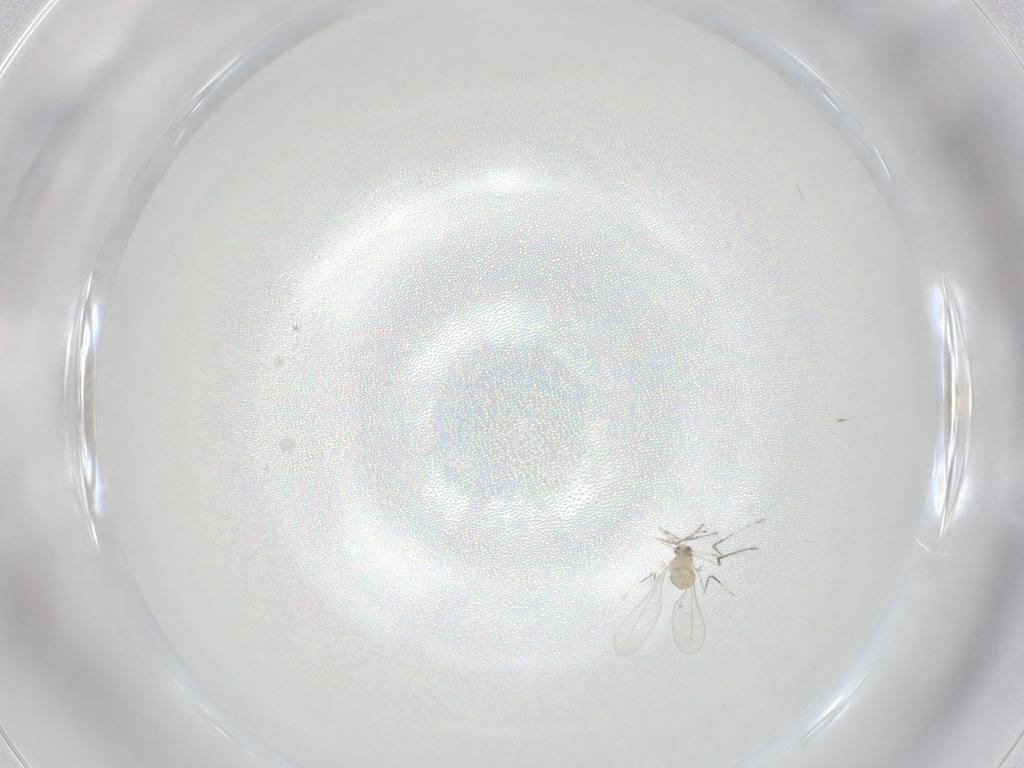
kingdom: Animalia
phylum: Arthropoda
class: Insecta
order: Diptera
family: Cecidomyiidae
